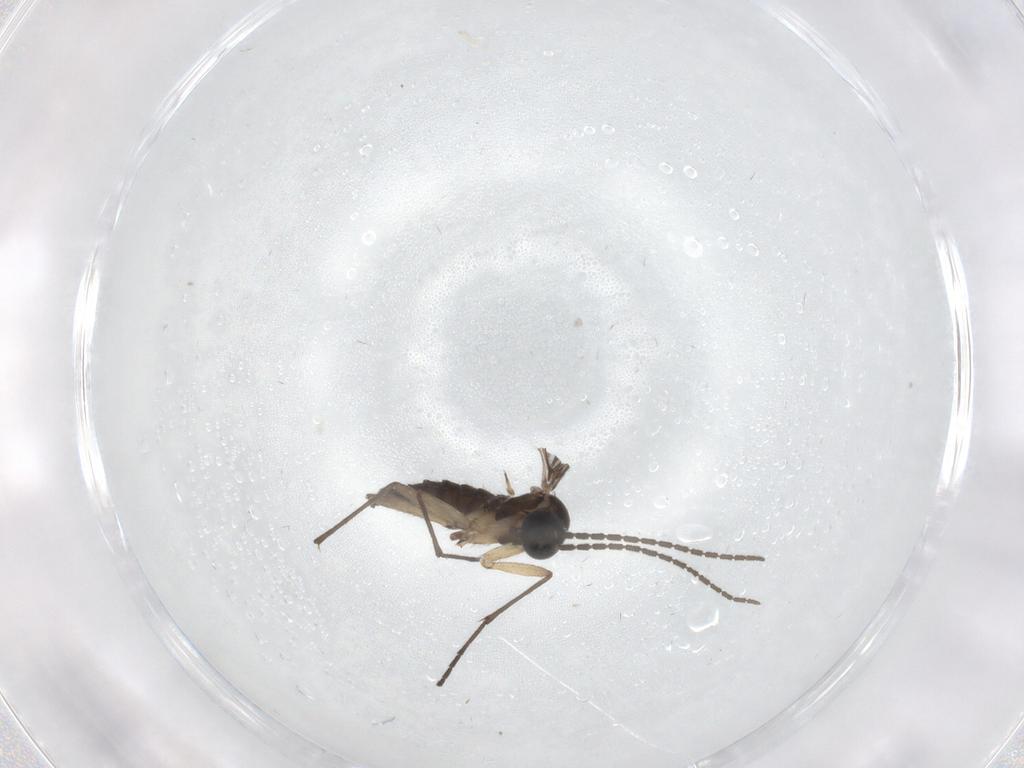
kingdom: Animalia
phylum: Arthropoda
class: Insecta
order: Diptera
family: Sciaridae
